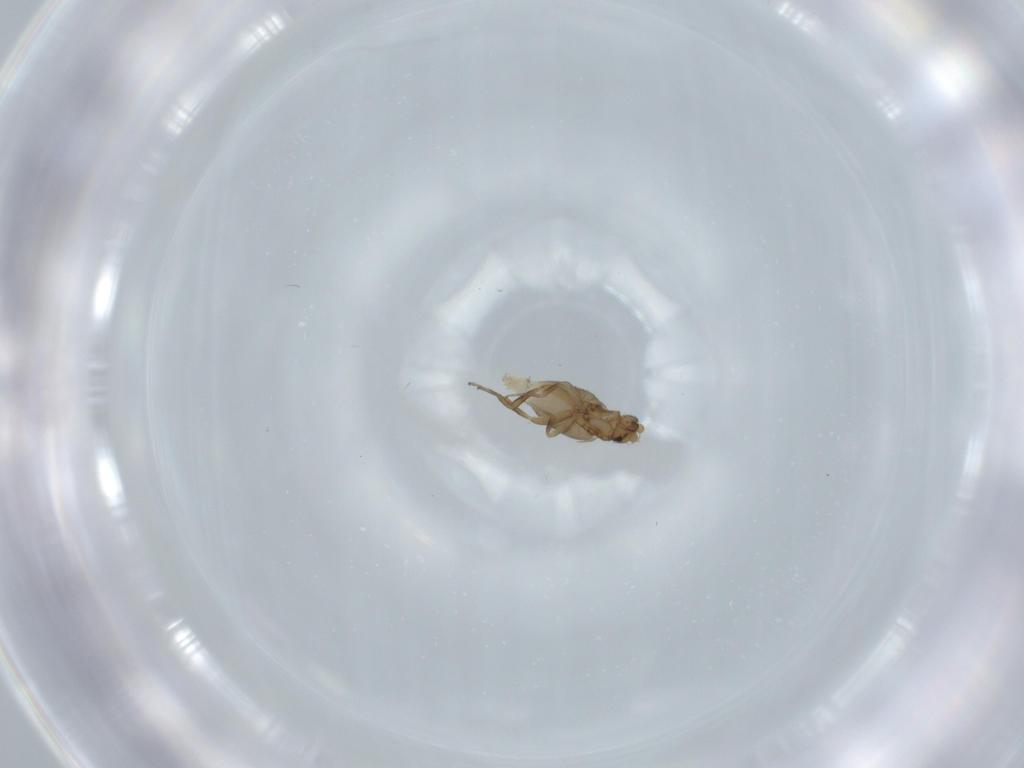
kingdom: Animalia
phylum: Arthropoda
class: Insecta
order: Diptera
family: Phoridae
